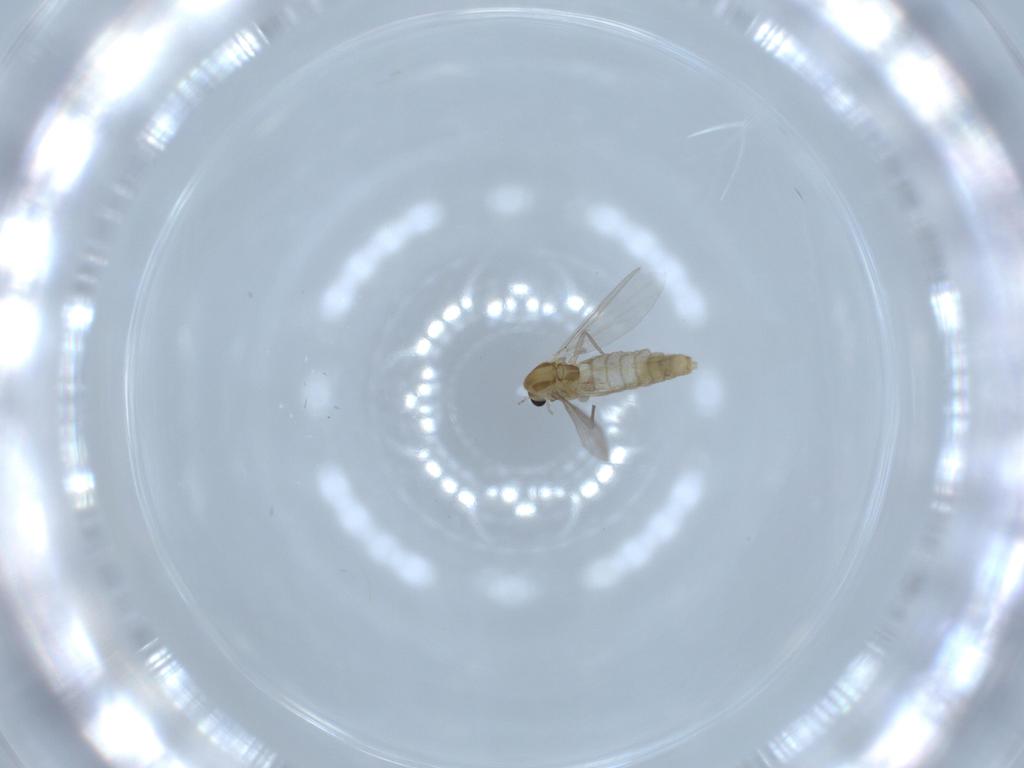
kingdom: Animalia
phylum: Arthropoda
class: Insecta
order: Diptera
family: Chironomidae
